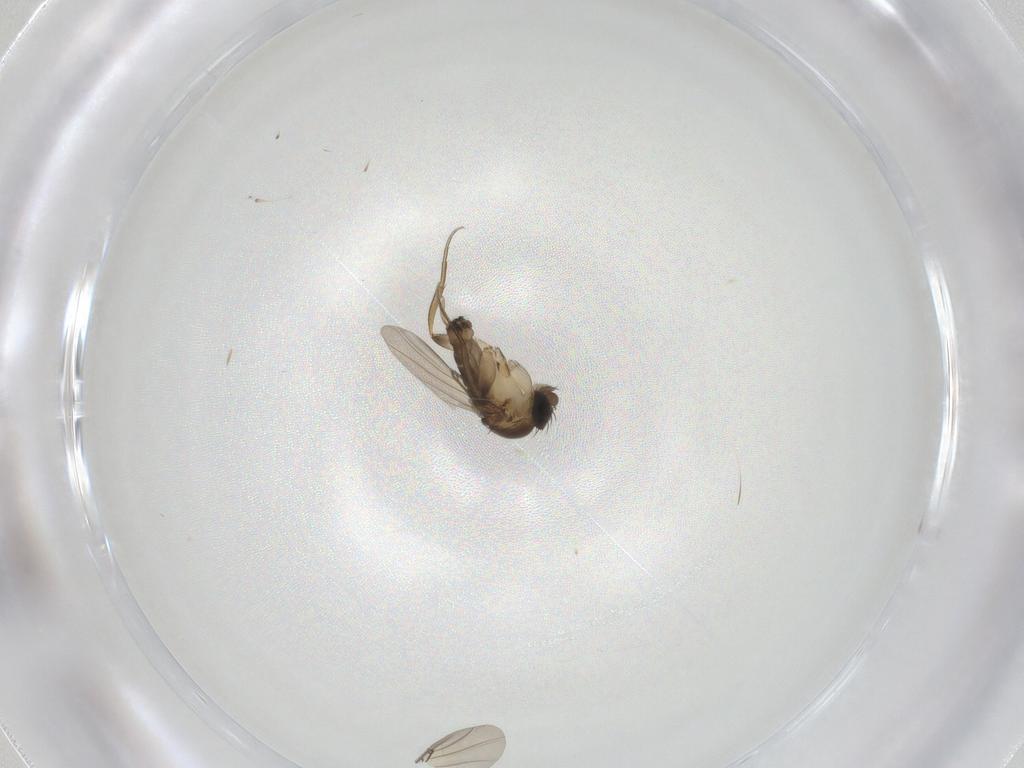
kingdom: Animalia
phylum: Arthropoda
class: Insecta
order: Diptera
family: Phoridae
